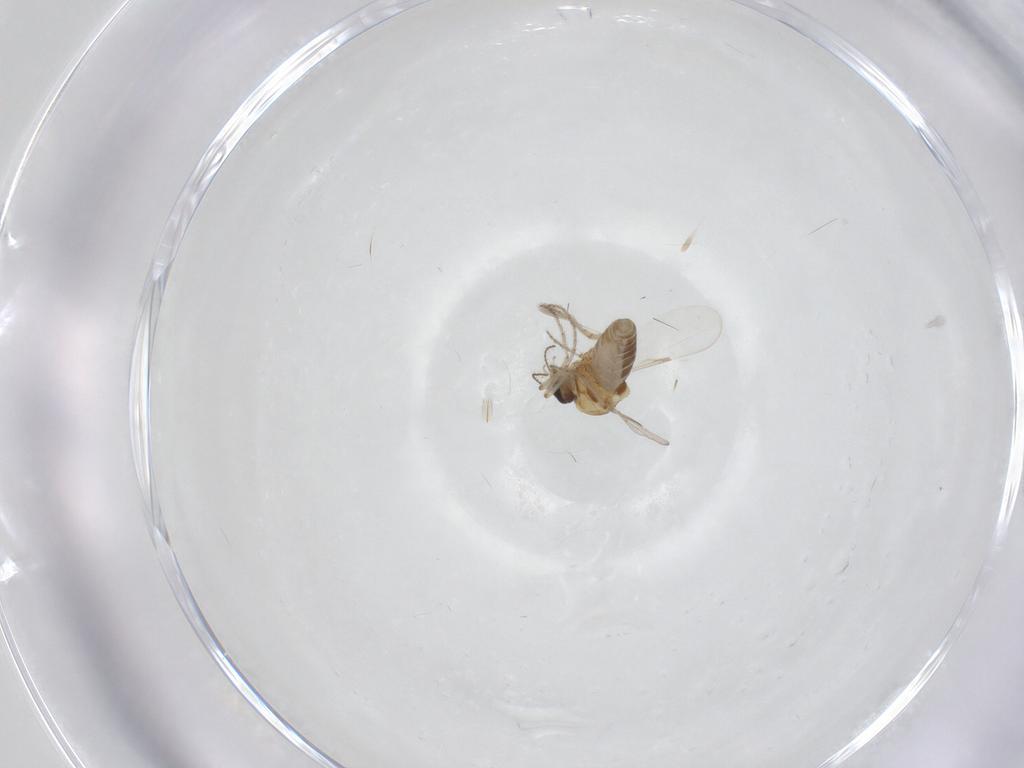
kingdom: Animalia
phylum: Arthropoda
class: Insecta
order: Diptera
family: Ceratopogonidae
